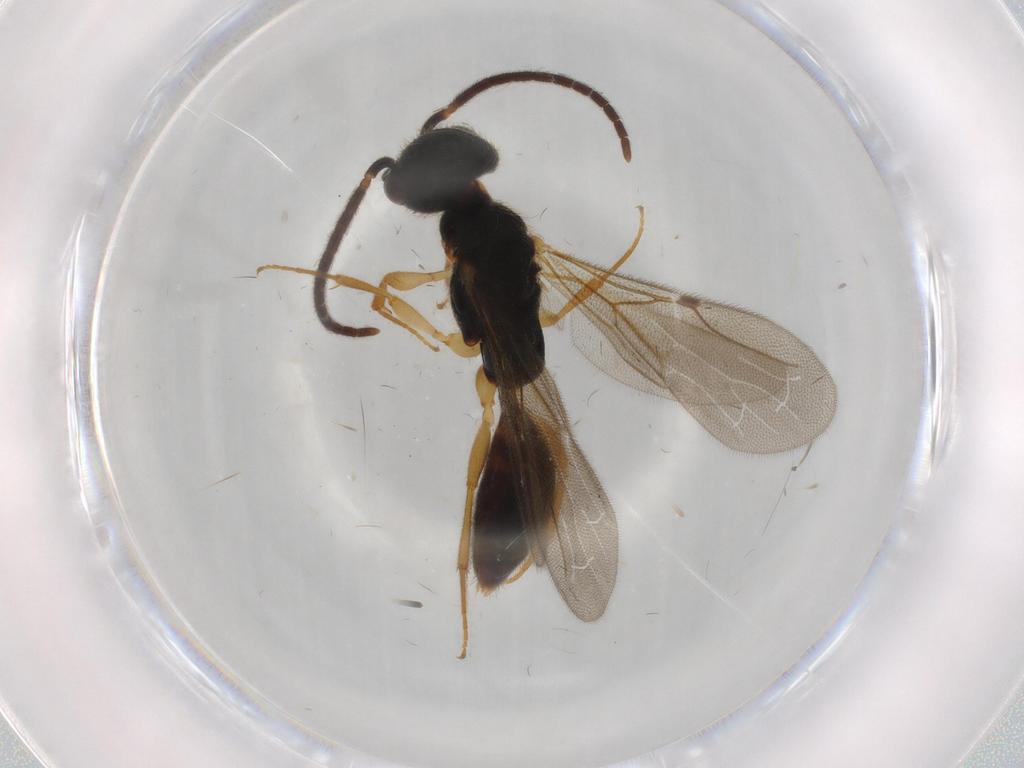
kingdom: Animalia
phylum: Arthropoda
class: Insecta
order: Hymenoptera
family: Bethylidae
